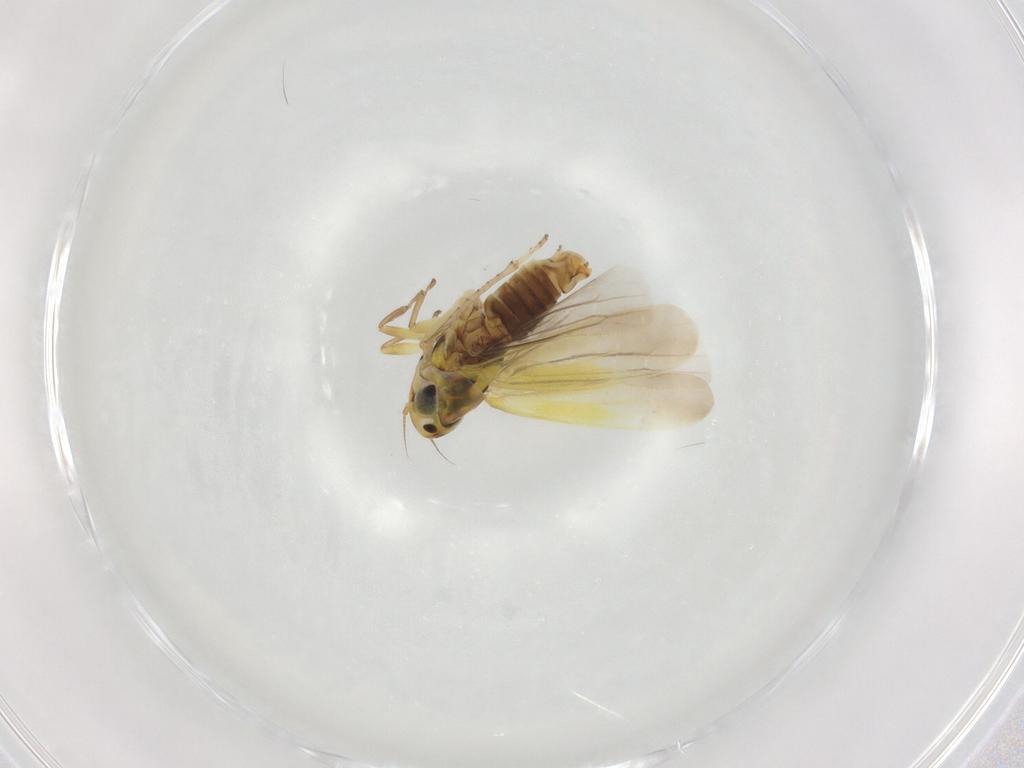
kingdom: Animalia
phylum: Arthropoda
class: Insecta
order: Hemiptera
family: Cicadellidae
